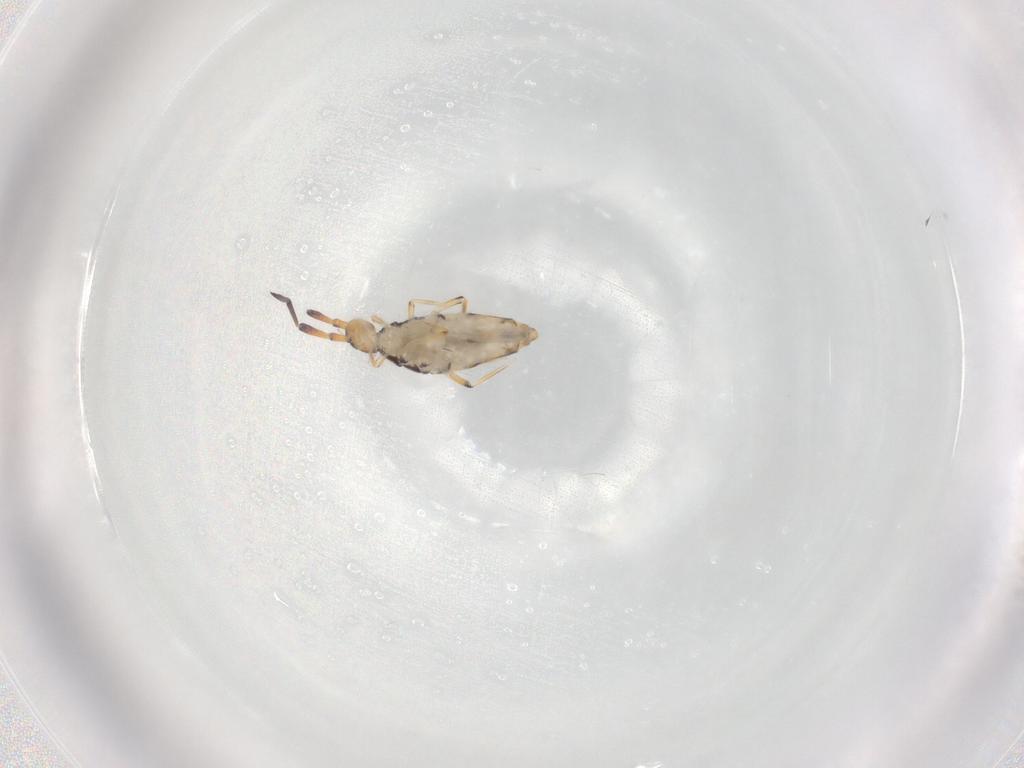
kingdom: Animalia
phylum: Arthropoda
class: Collembola
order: Entomobryomorpha
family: Entomobryidae
